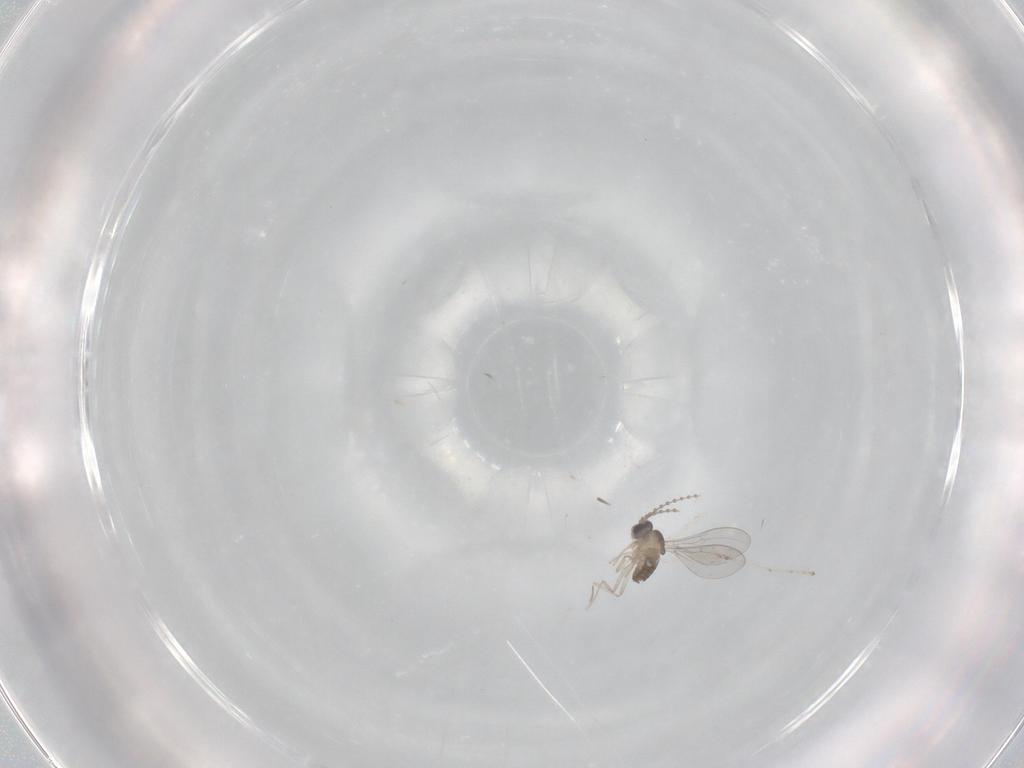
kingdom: Animalia
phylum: Arthropoda
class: Insecta
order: Diptera
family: Cecidomyiidae
